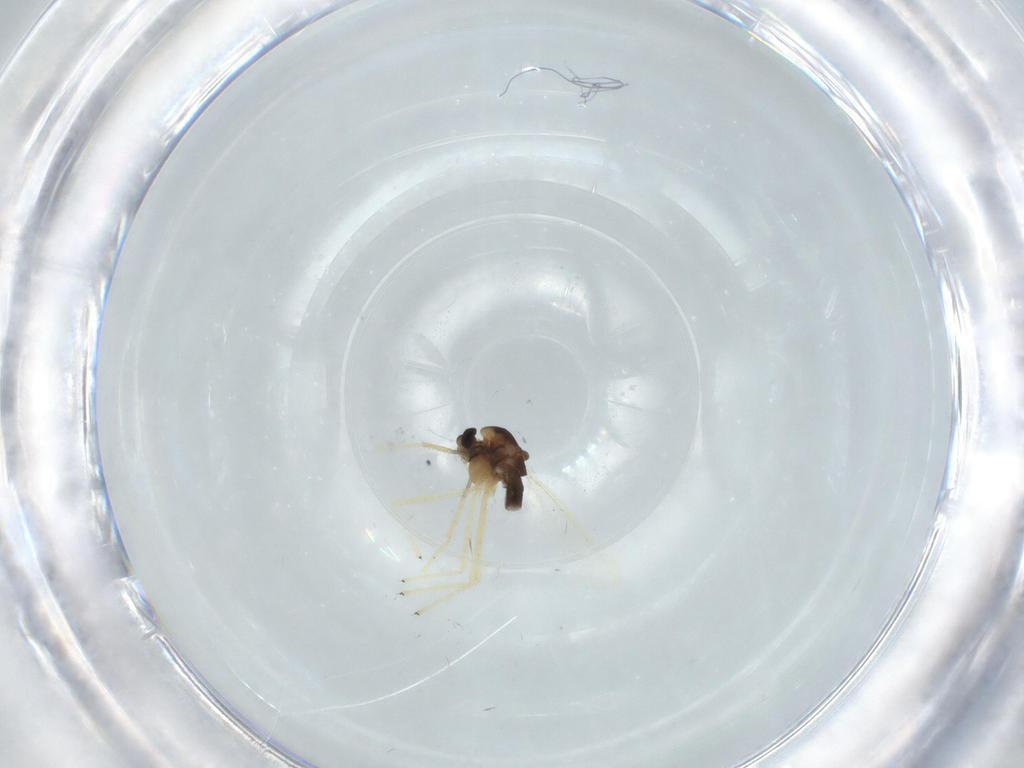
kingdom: Animalia
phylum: Arthropoda
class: Insecta
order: Diptera
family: Chironomidae
